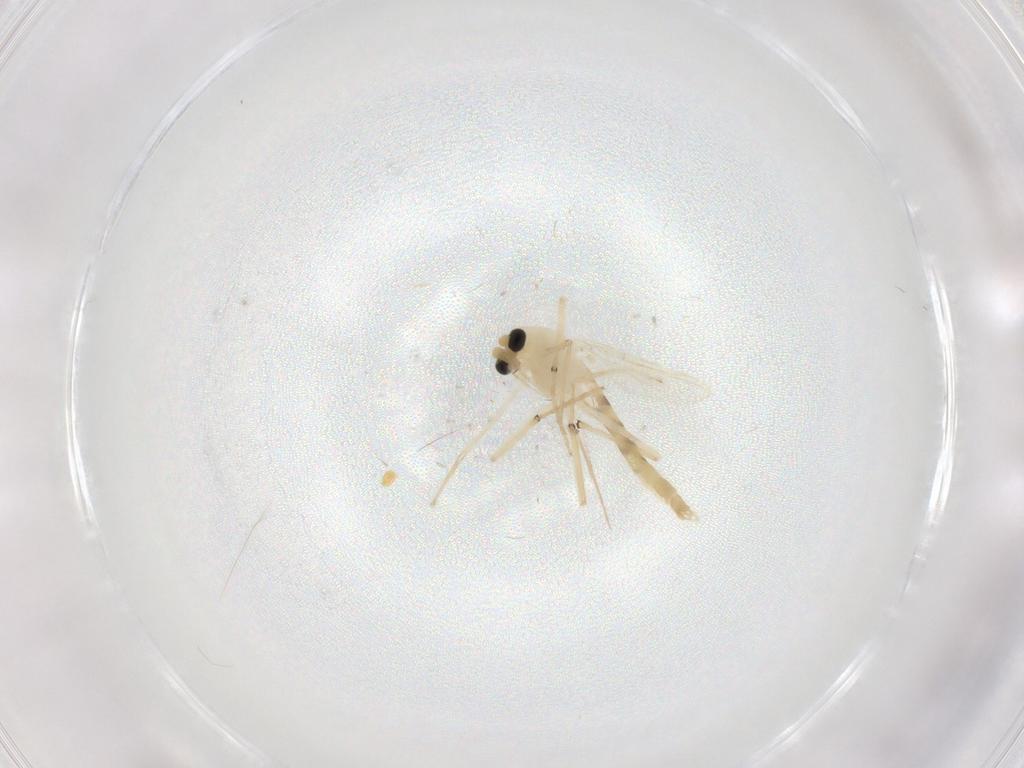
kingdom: Animalia
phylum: Arthropoda
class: Insecta
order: Diptera
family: Chironomidae
